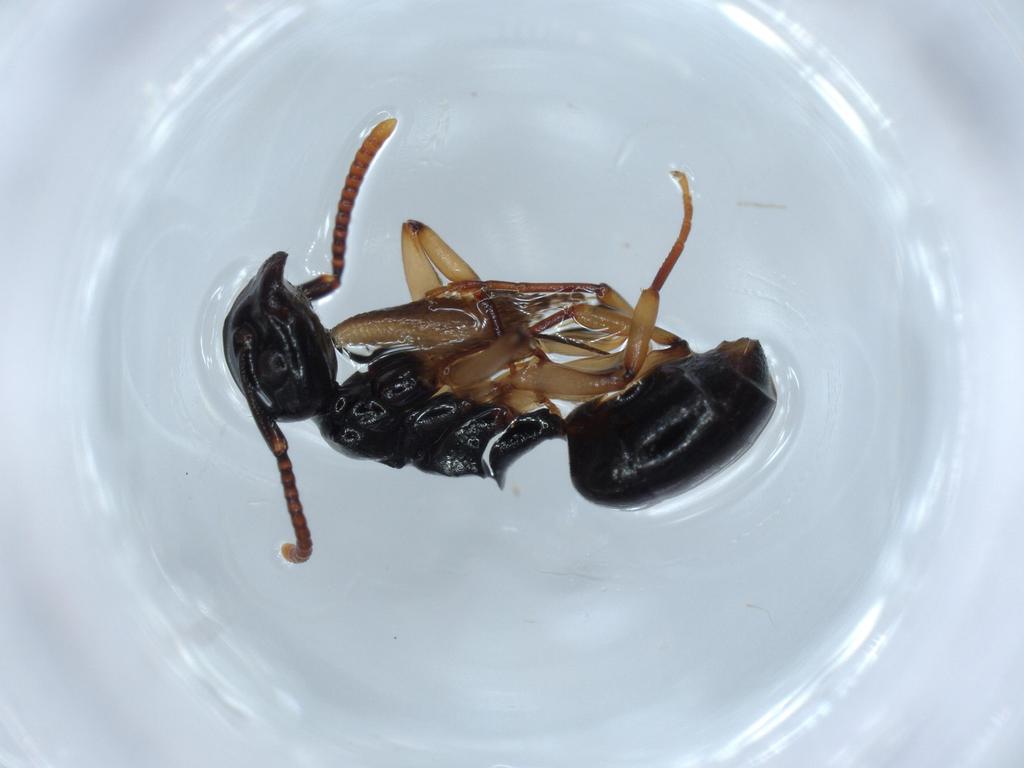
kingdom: Animalia
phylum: Arthropoda
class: Insecta
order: Hymenoptera
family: Formicidae
